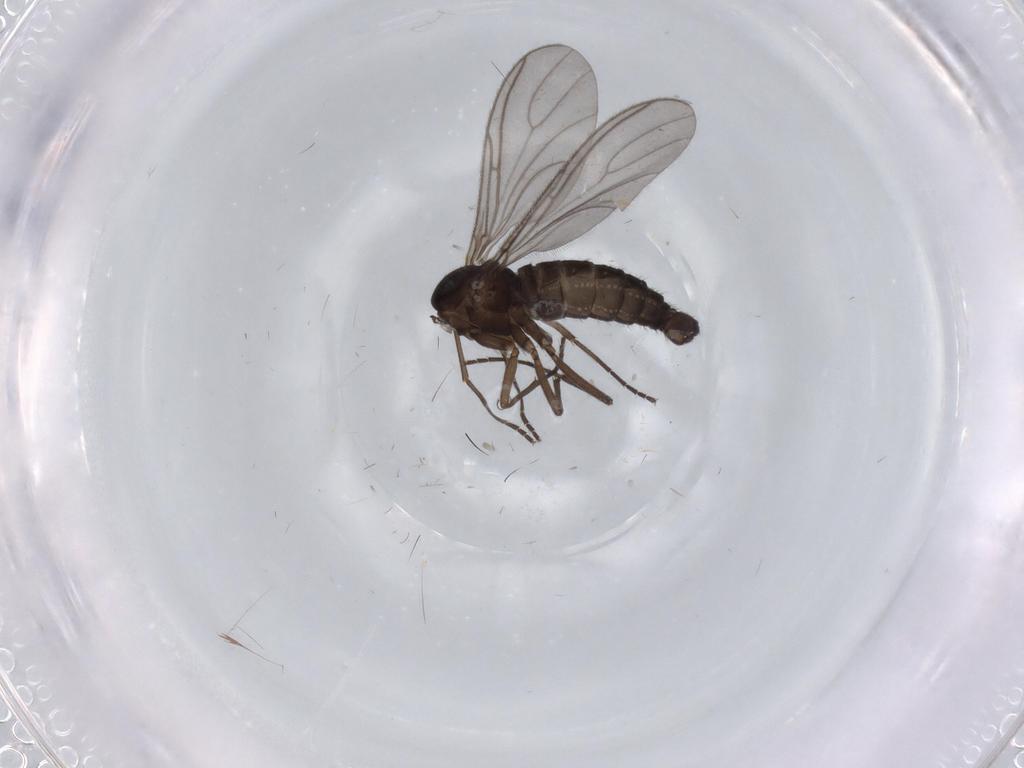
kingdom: Animalia
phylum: Arthropoda
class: Insecta
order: Diptera
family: Sciaridae
